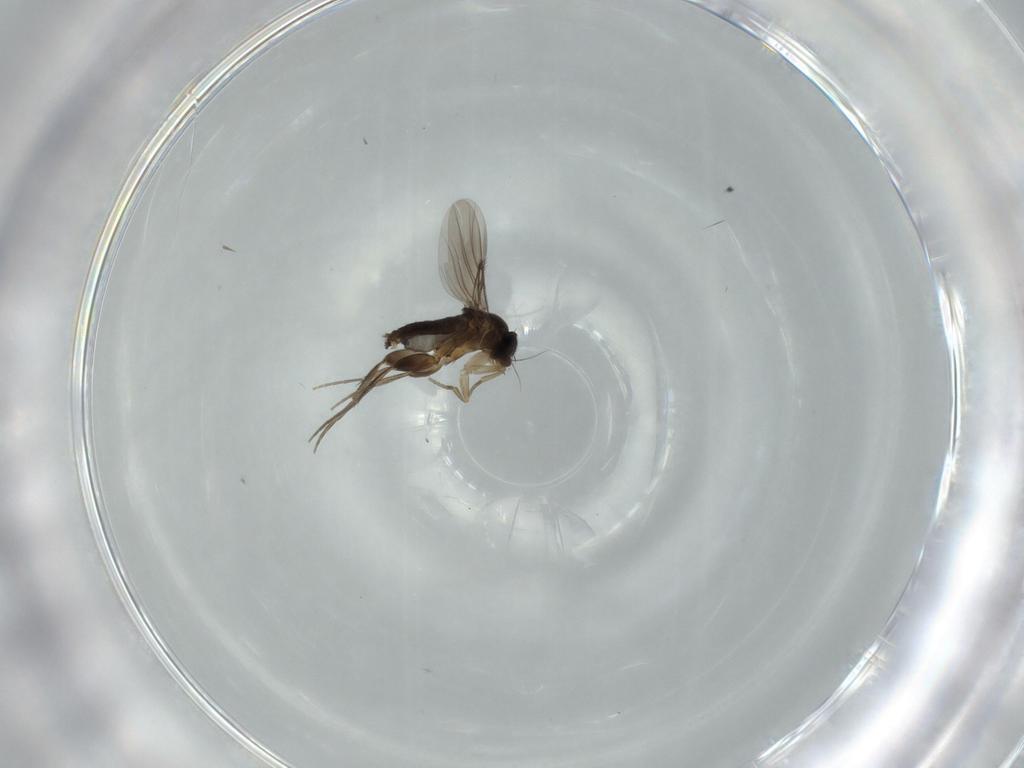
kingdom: Animalia
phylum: Arthropoda
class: Insecta
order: Diptera
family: Phoridae
